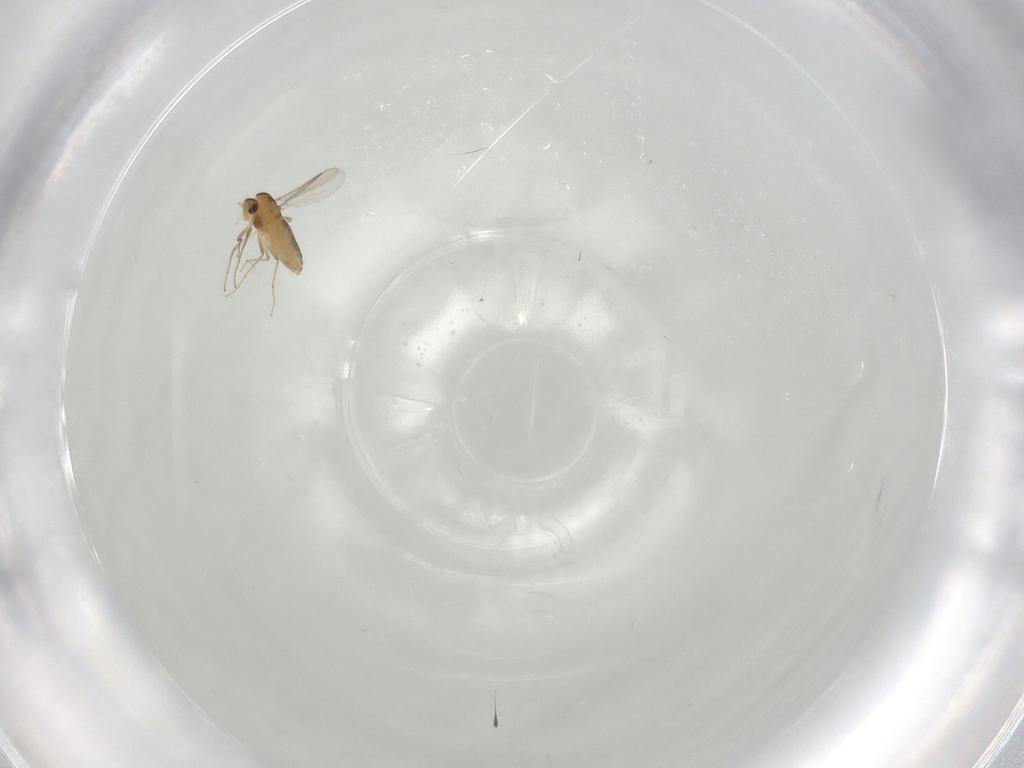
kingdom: Animalia
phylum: Arthropoda
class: Insecta
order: Diptera
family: Chironomidae
